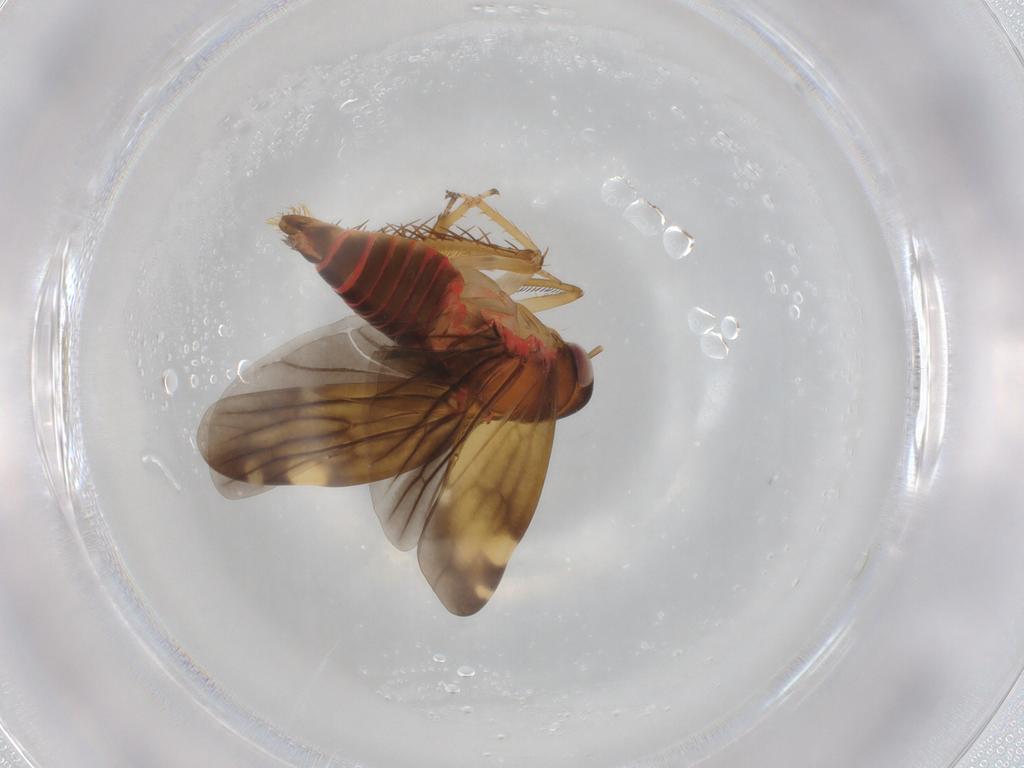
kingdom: Animalia
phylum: Arthropoda
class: Insecta
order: Hemiptera
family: Cicadellidae
